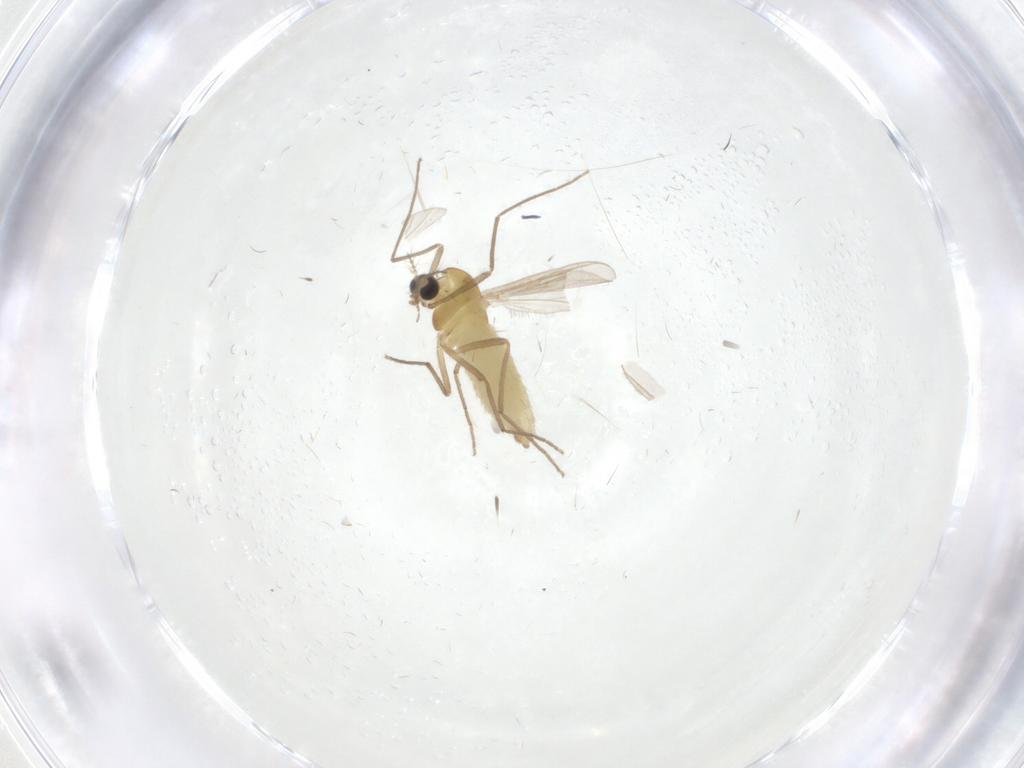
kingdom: Animalia
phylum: Arthropoda
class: Insecta
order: Diptera
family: Chironomidae
